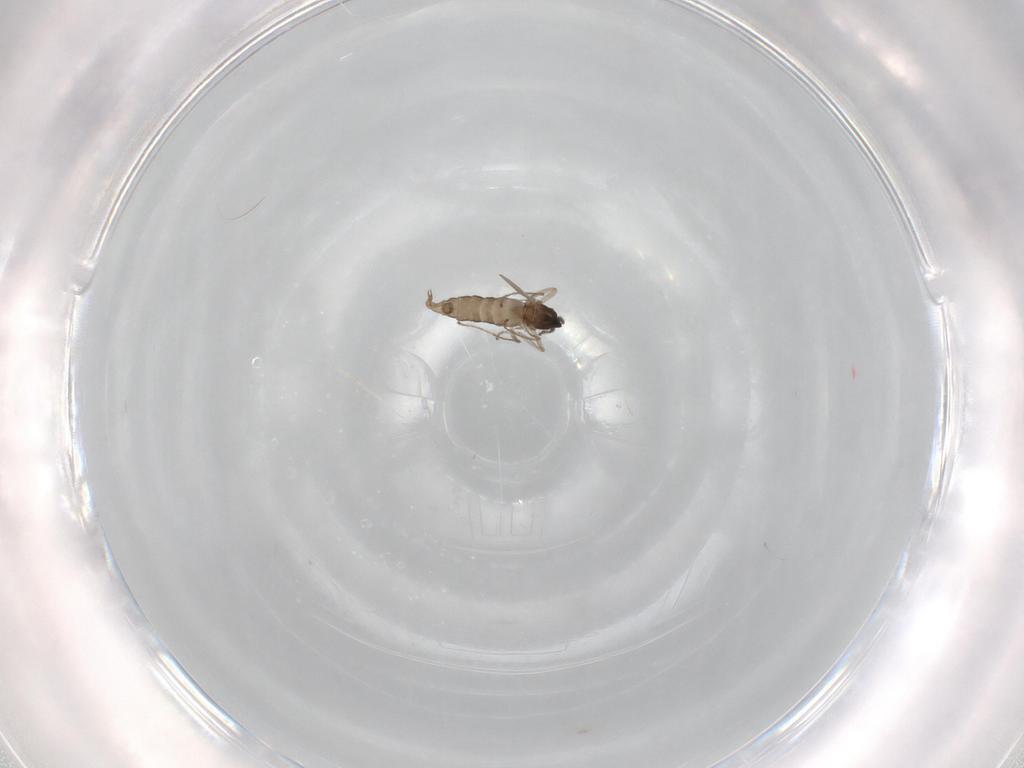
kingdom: Animalia
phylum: Arthropoda
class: Insecta
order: Diptera
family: Cecidomyiidae
